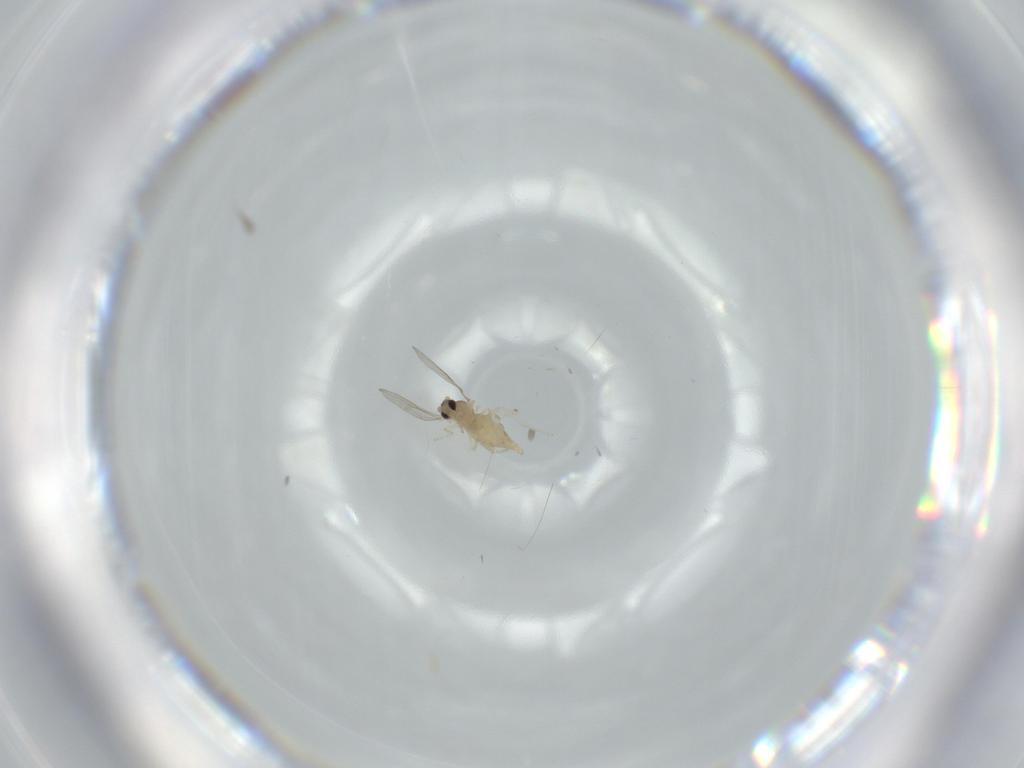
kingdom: Animalia
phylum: Arthropoda
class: Insecta
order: Diptera
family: Cecidomyiidae
